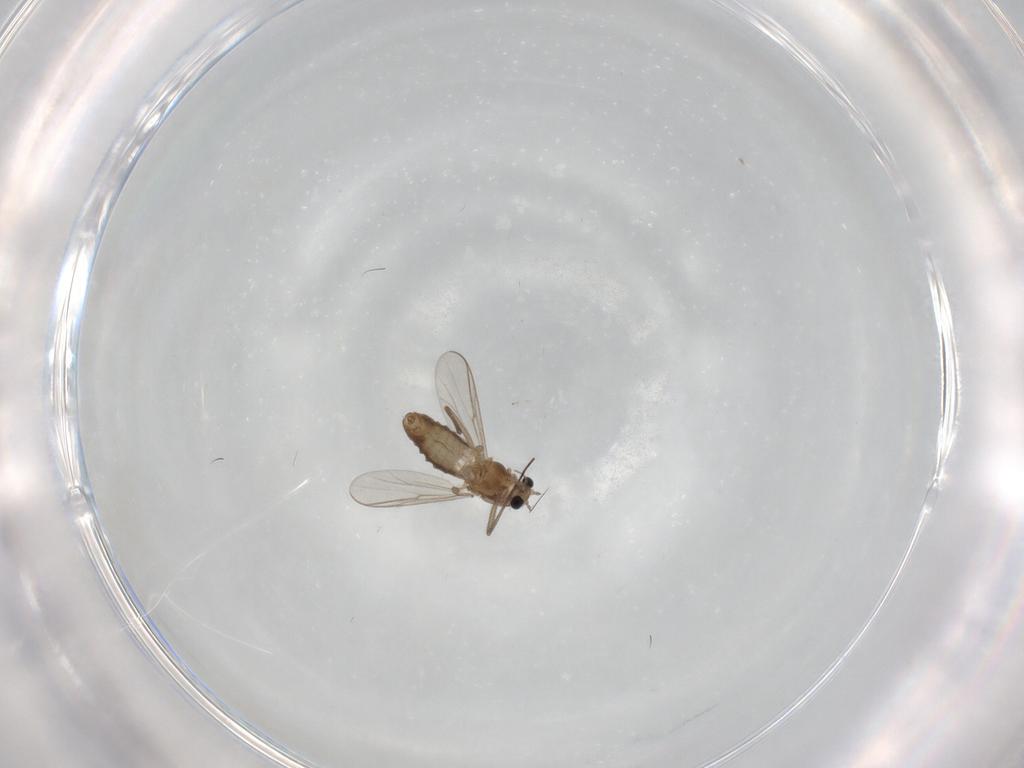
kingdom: Animalia
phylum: Arthropoda
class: Insecta
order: Diptera
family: Chironomidae
